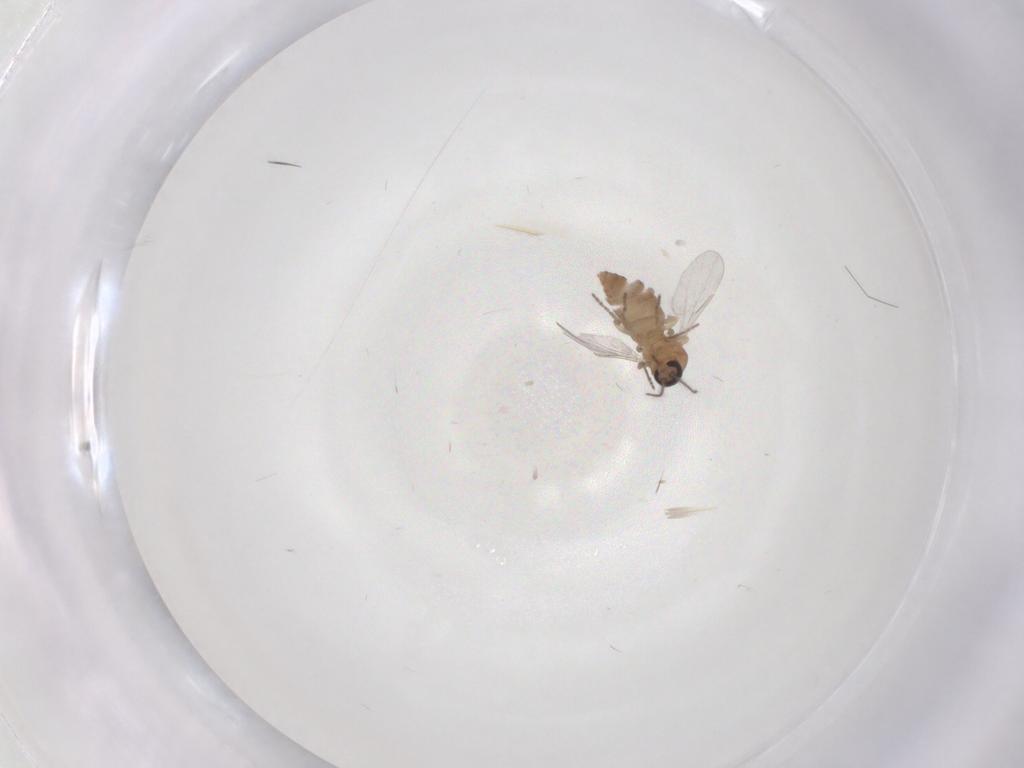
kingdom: Animalia
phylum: Arthropoda
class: Insecta
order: Diptera
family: Ceratopogonidae
